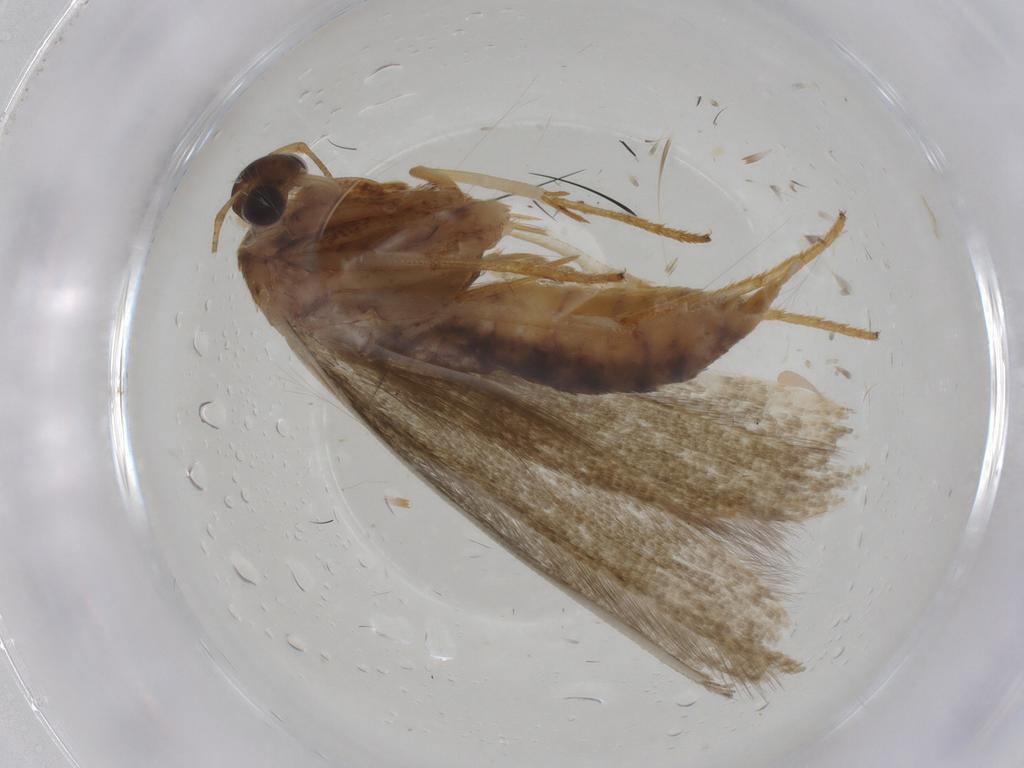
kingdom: Animalia
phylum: Arthropoda
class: Insecta
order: Lepidoptera
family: Blastobasidae
